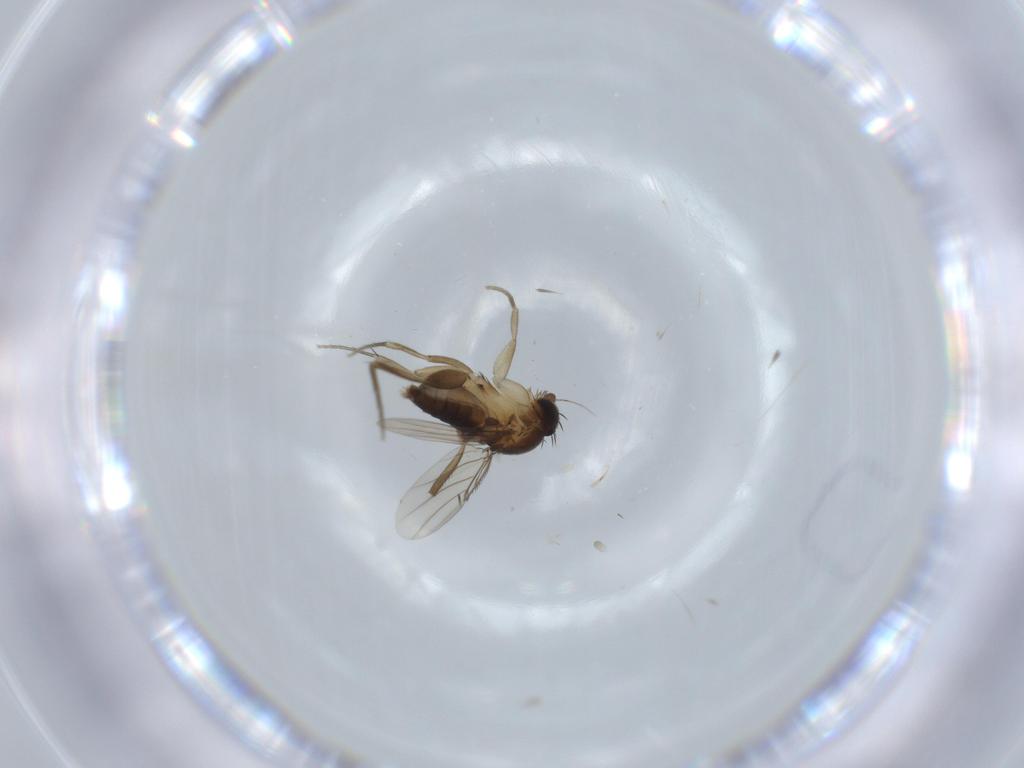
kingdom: Animalia
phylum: Arthropoda
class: Insecta
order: Diptera
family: Phoridae
